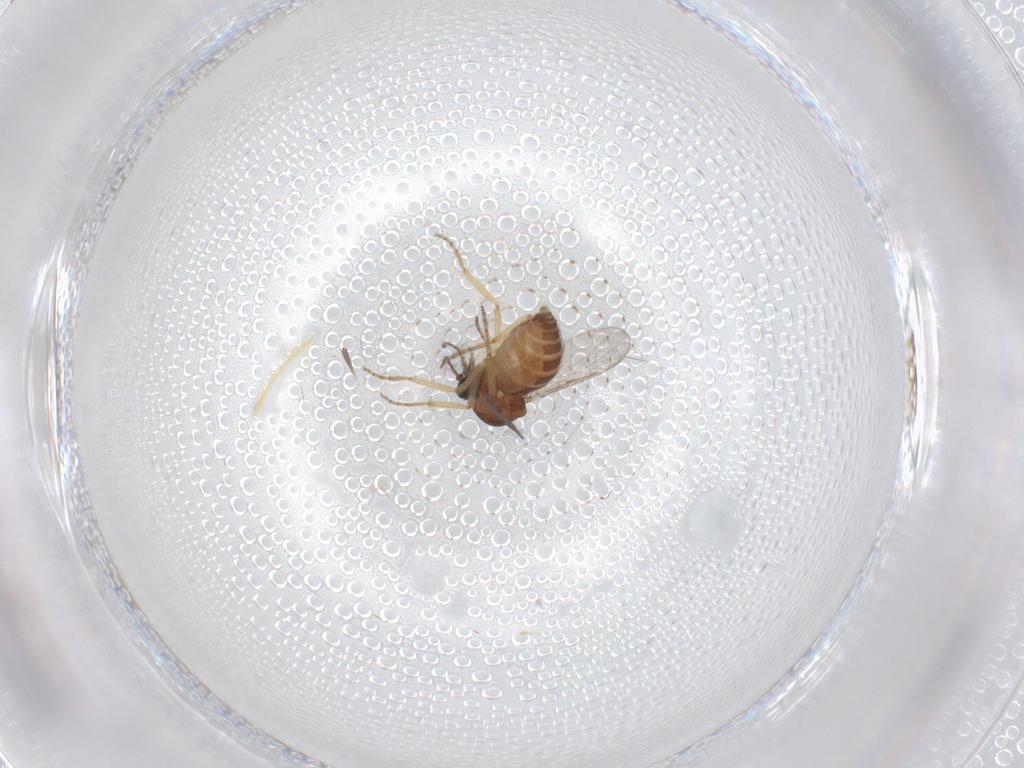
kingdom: Animalia
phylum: Arthropoda
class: Insecta
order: Diptera
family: Ceratopogonidae
